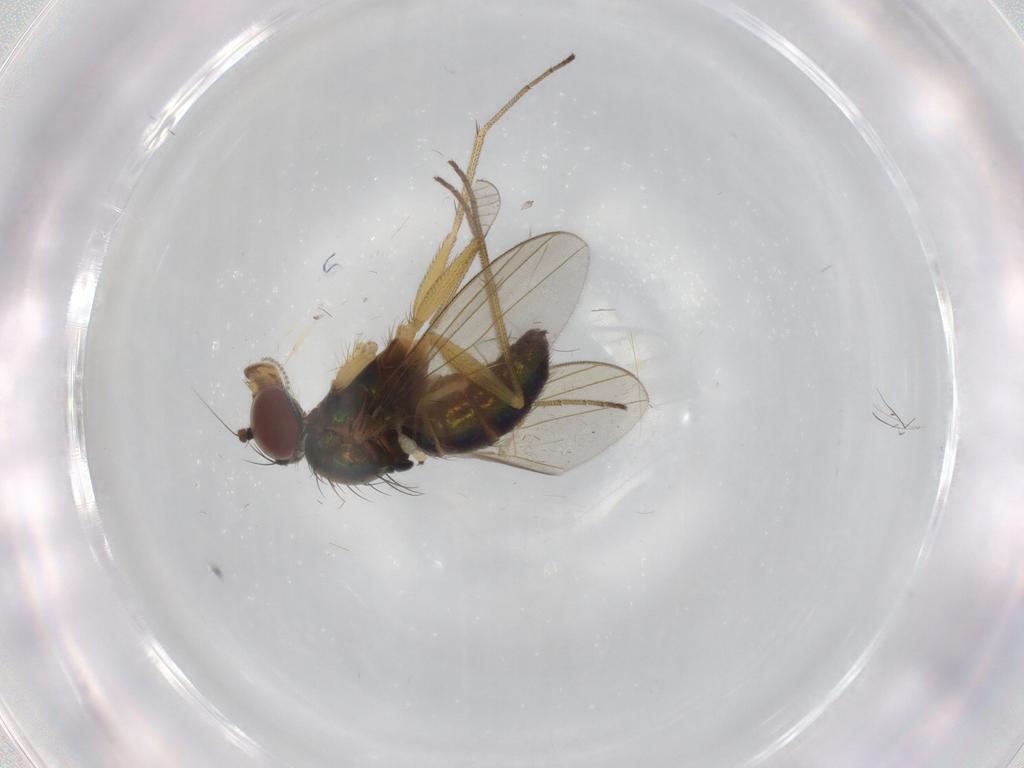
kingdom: Animalia
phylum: Arthropoda
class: Insecta
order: Diptera
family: Dolichopodidae
